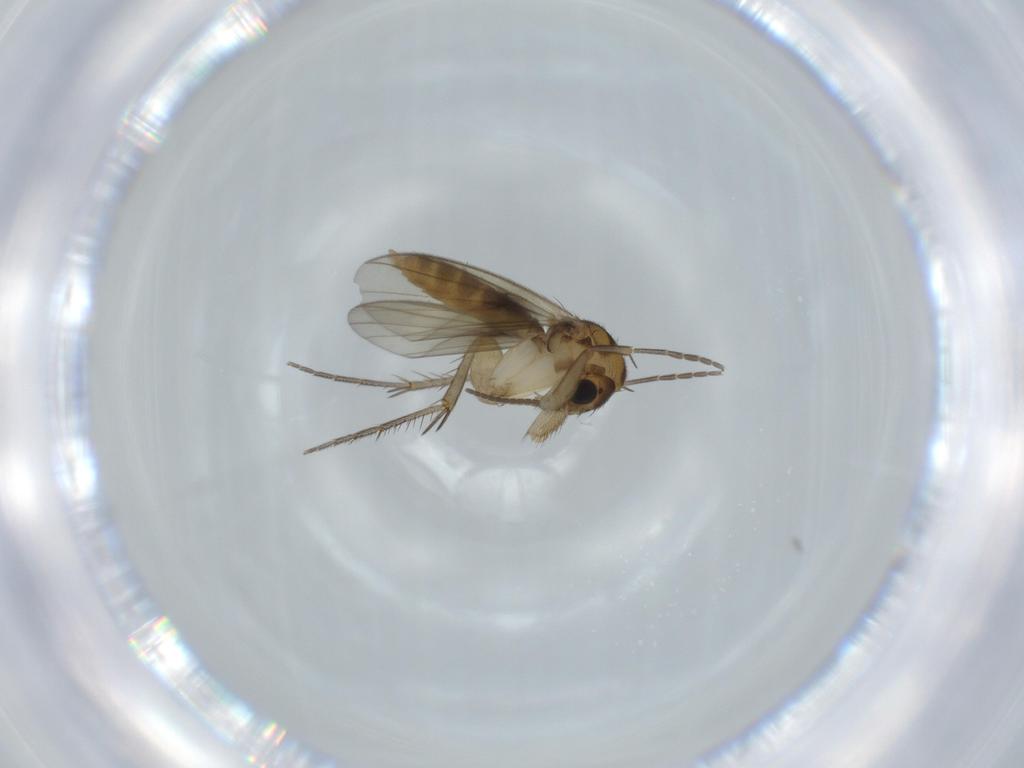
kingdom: Animalia
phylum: Arthropoda
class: Insecta
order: Diptera
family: Mycetophilidae
